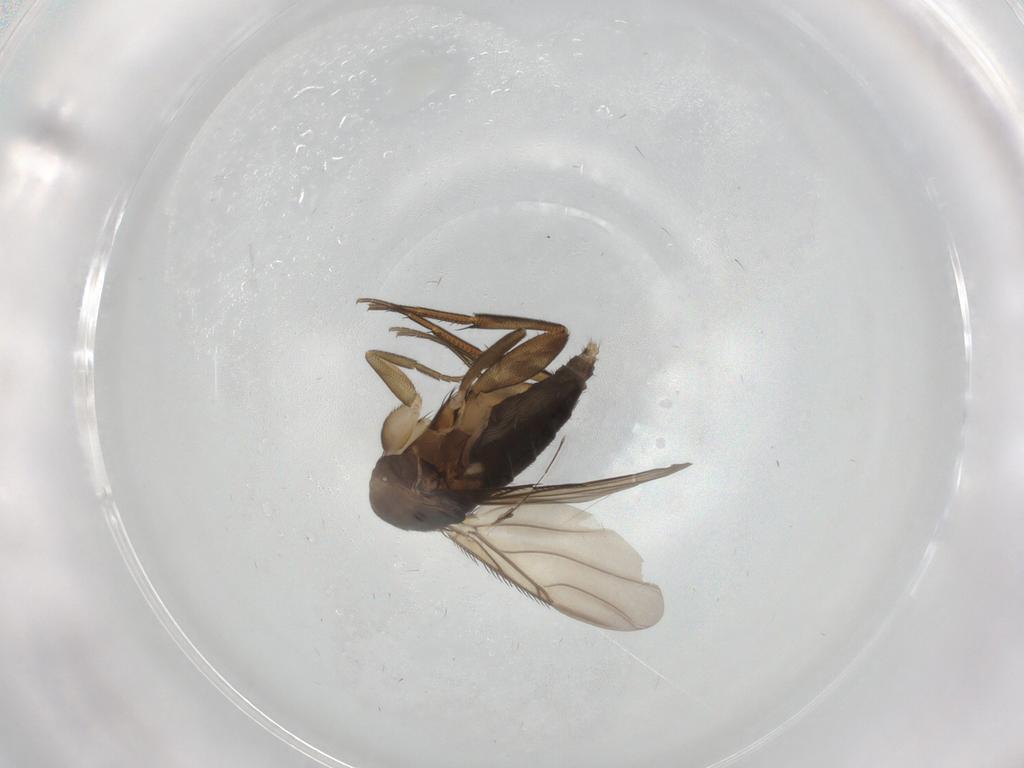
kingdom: Animalia
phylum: Arthropoda
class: Insecta
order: Diptera
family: Phoridae
